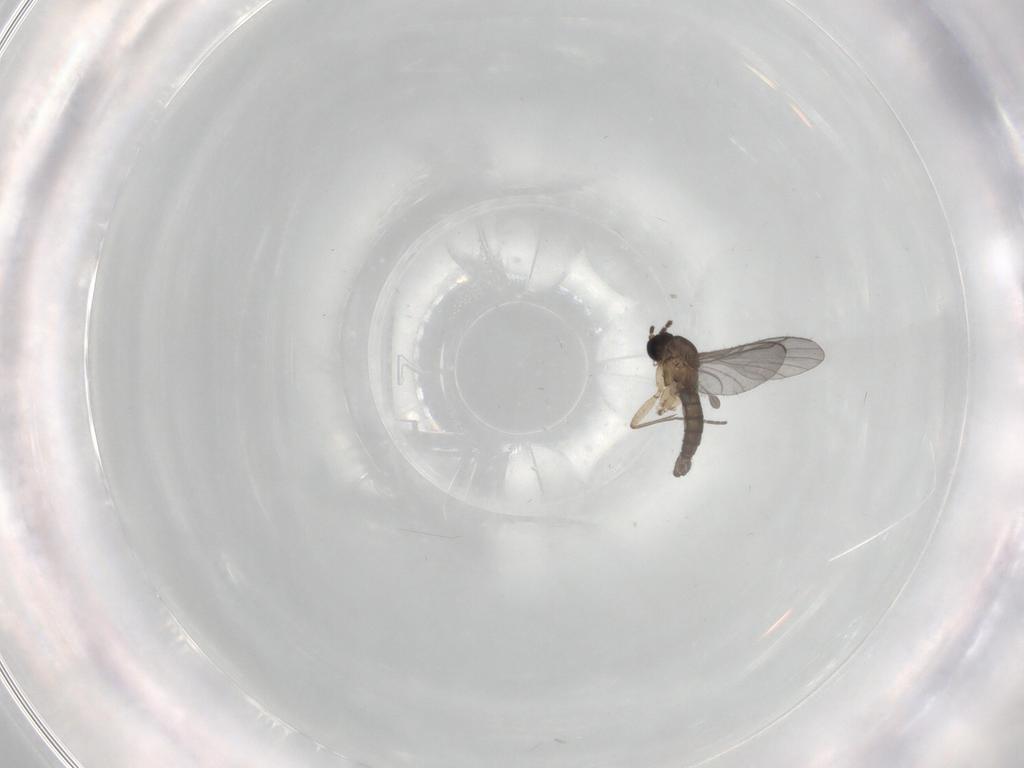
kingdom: Animalia
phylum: Arthropoda
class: Insecta
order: Diptera
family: Sciaridae
